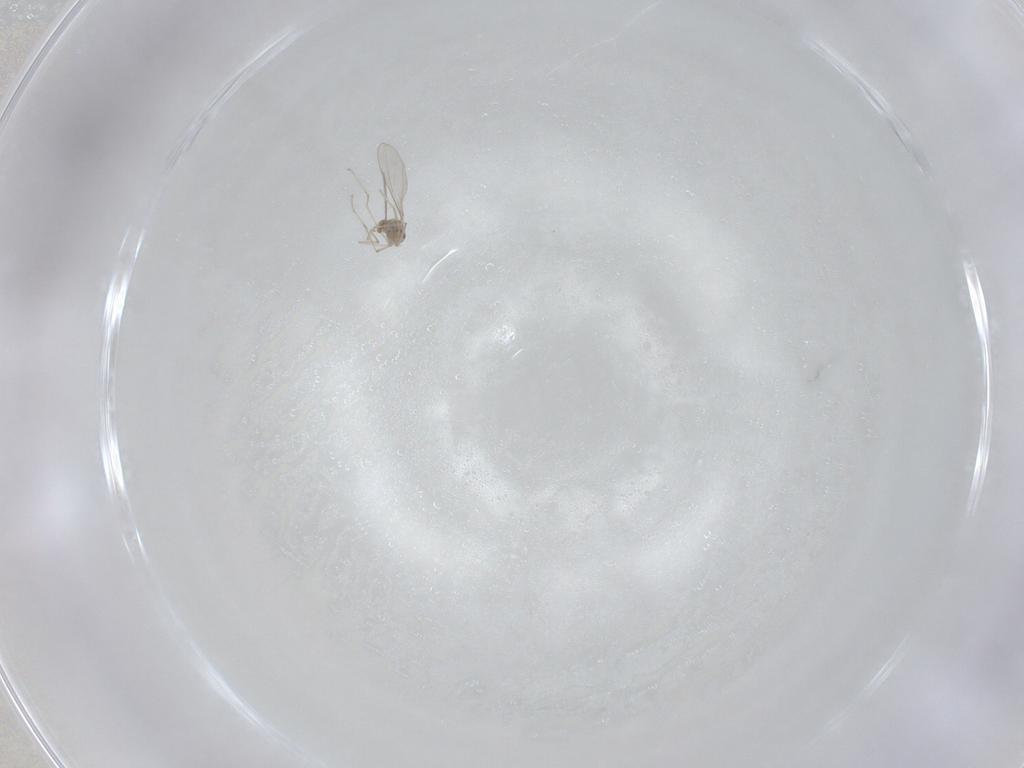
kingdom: Animalia
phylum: Arthropoda
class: Insecta
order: Diptera
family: Cecidomyiidae
